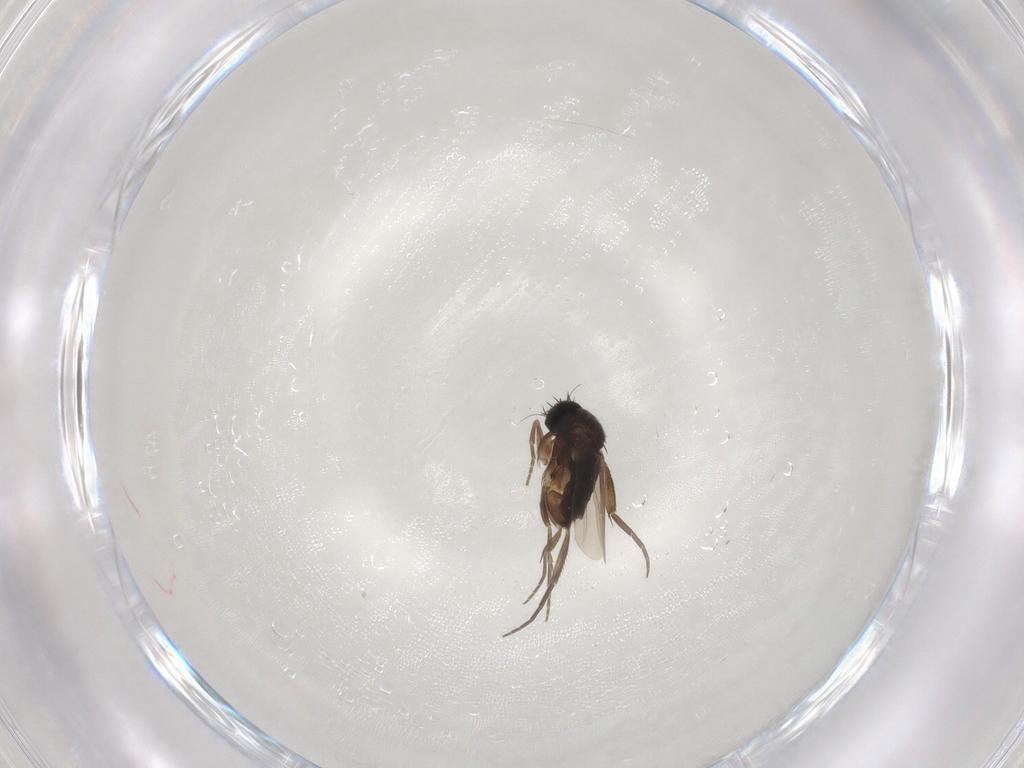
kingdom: Animalia
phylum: Arthropoda
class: Insecta
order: Diptera
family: Phoridae
